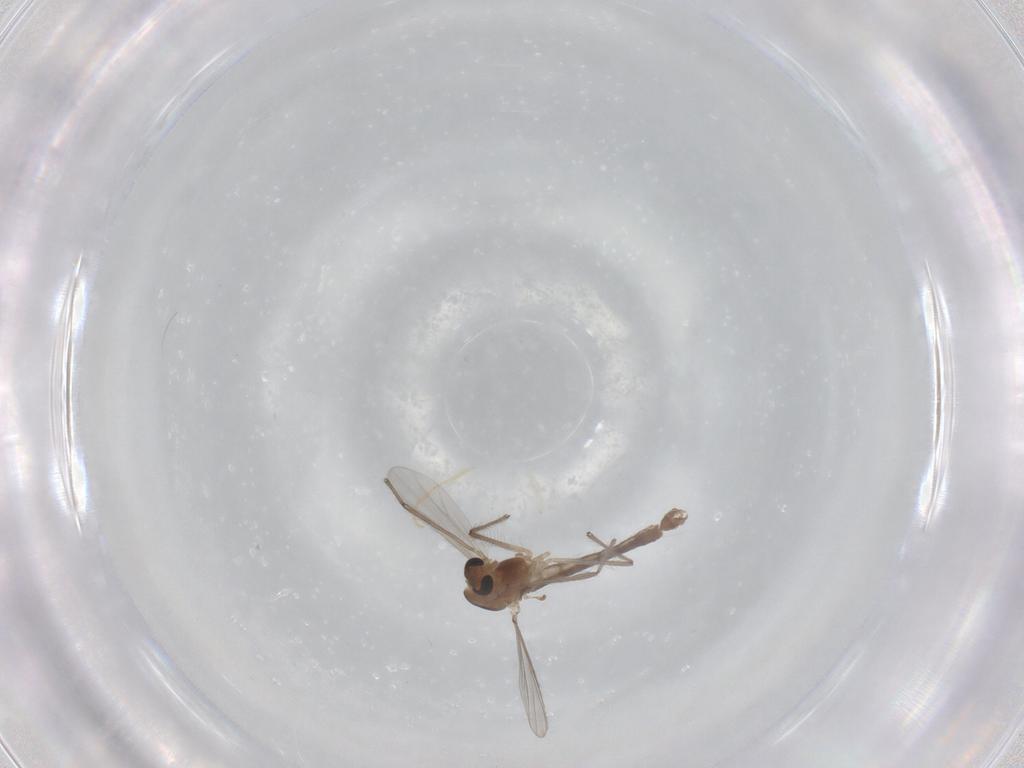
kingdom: Animalia
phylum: Arthropoda
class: Insecta
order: Diptera
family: Chironomidae
